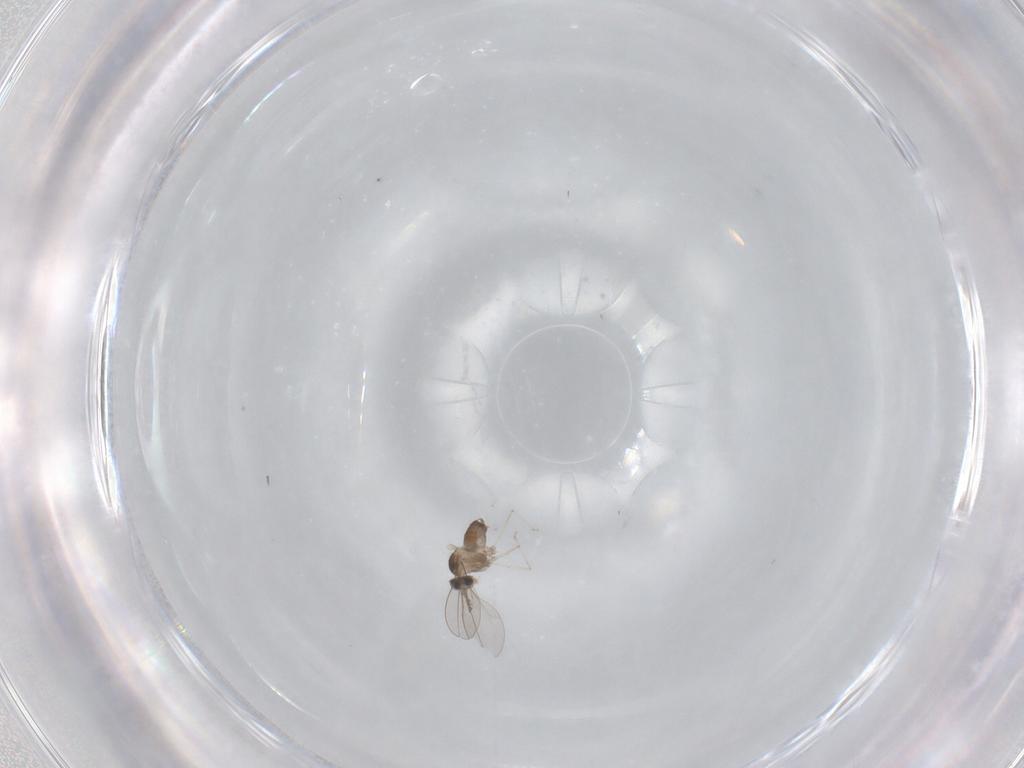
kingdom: Animalia
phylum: Arthropoda
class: Insecta
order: Diptera
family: Cecidomyiidae
